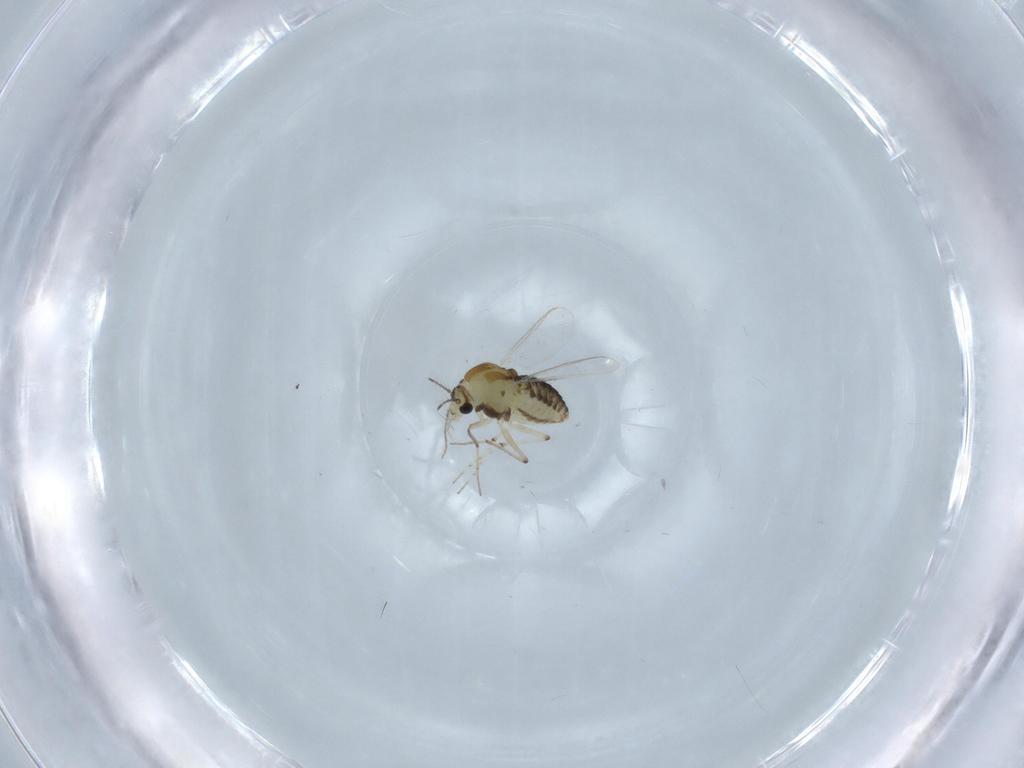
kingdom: Animalia
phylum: Arthropoda
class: Insecta
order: Diptera
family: Chironomidae
